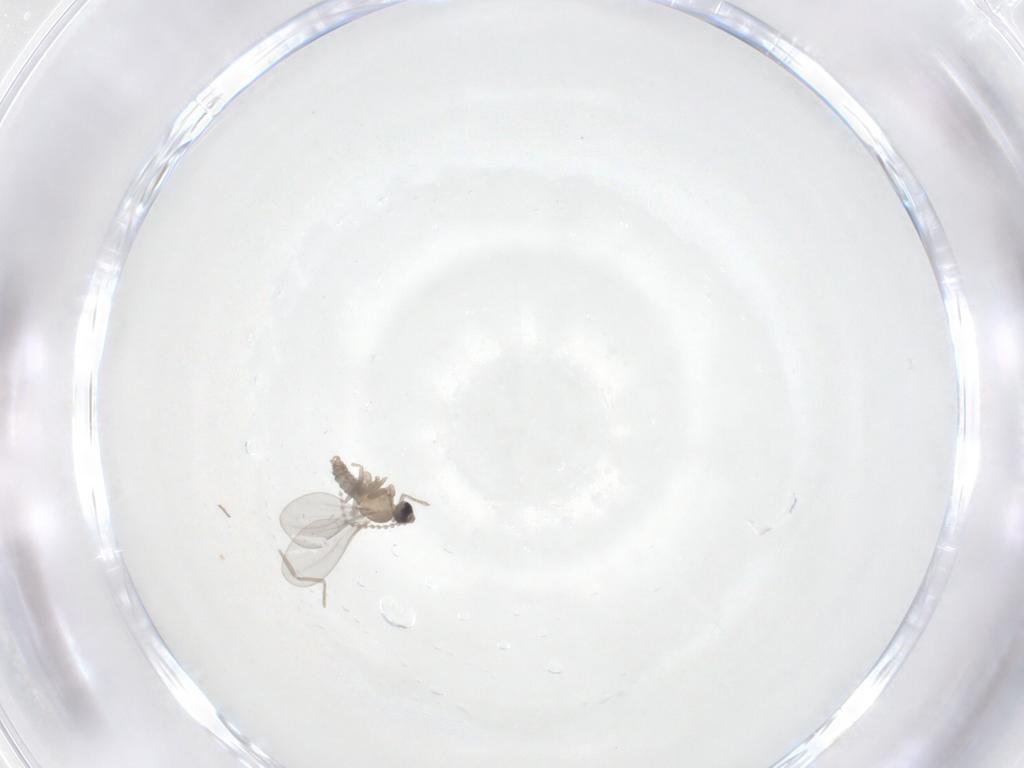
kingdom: Animalia
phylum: Arthropoda
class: Insecta
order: Diptera
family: Cecidomyiidae
